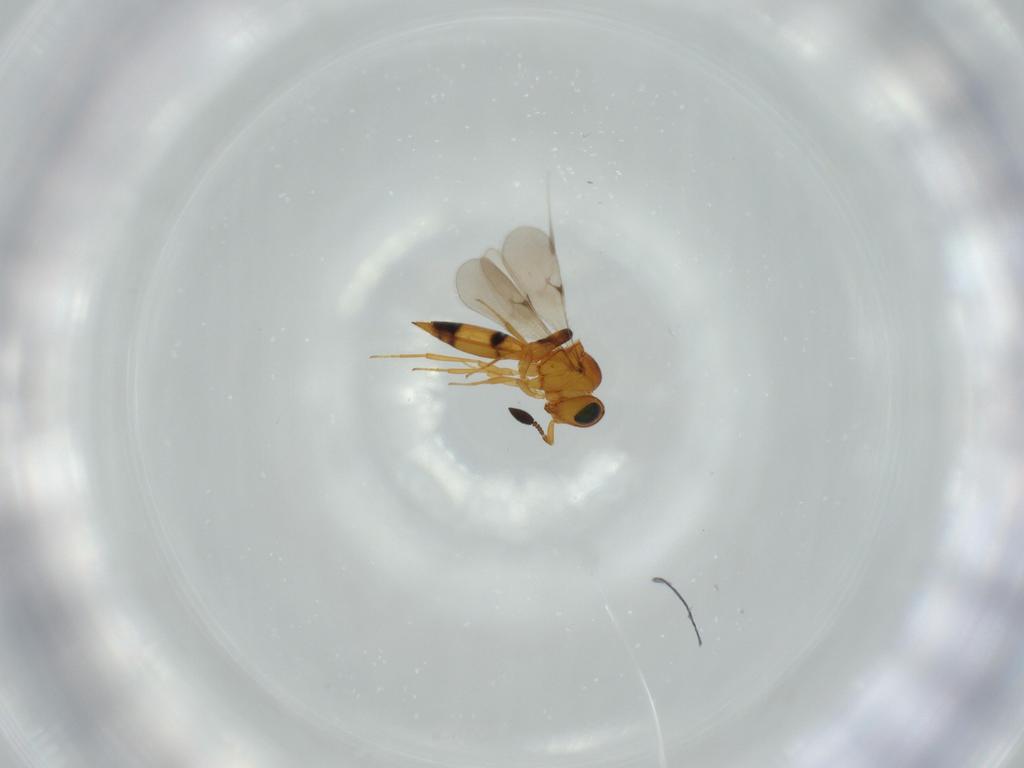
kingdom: Animalia
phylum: Arthropoda
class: Insecta
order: Hymenoptera
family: Scelionidae
